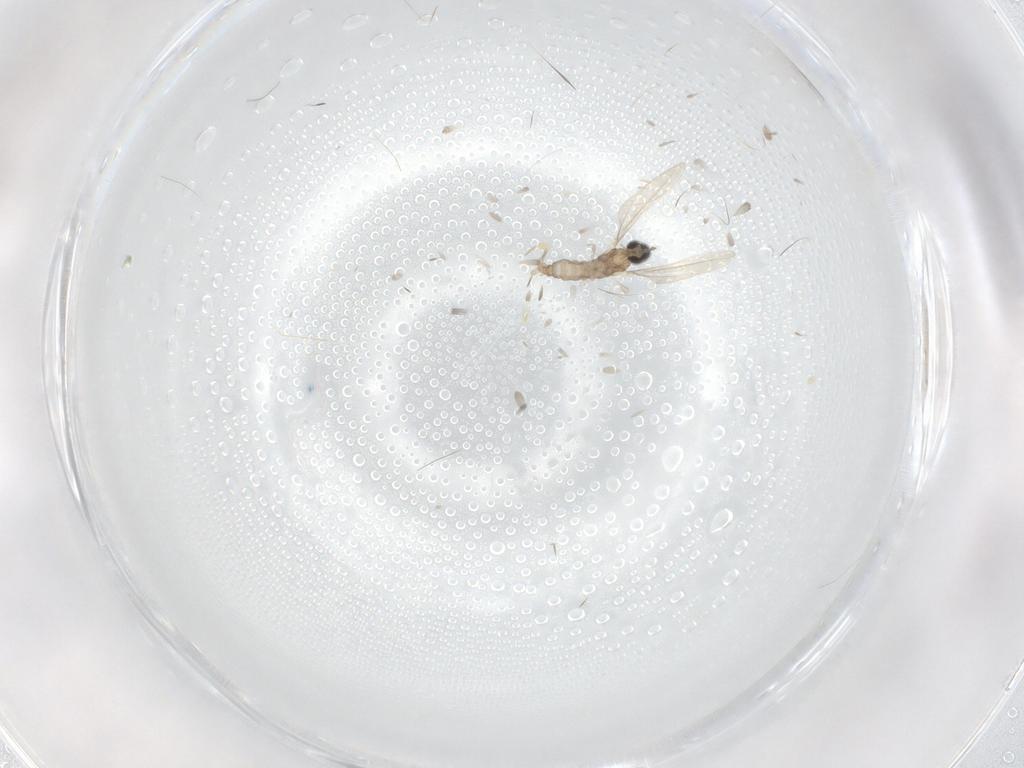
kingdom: Animalia
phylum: Arthropoda
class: Insecta
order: Diptera
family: Cecidomyiidae
